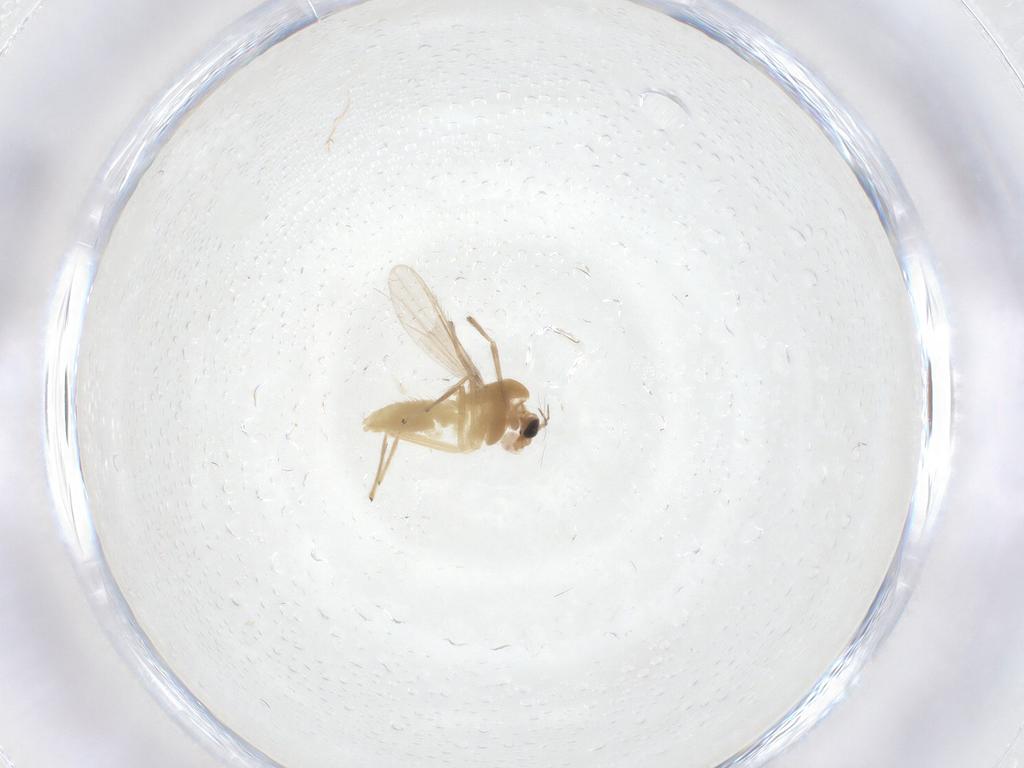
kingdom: Animalia
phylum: Arthropoda
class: Insecta
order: Diptera
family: Chironomidae
